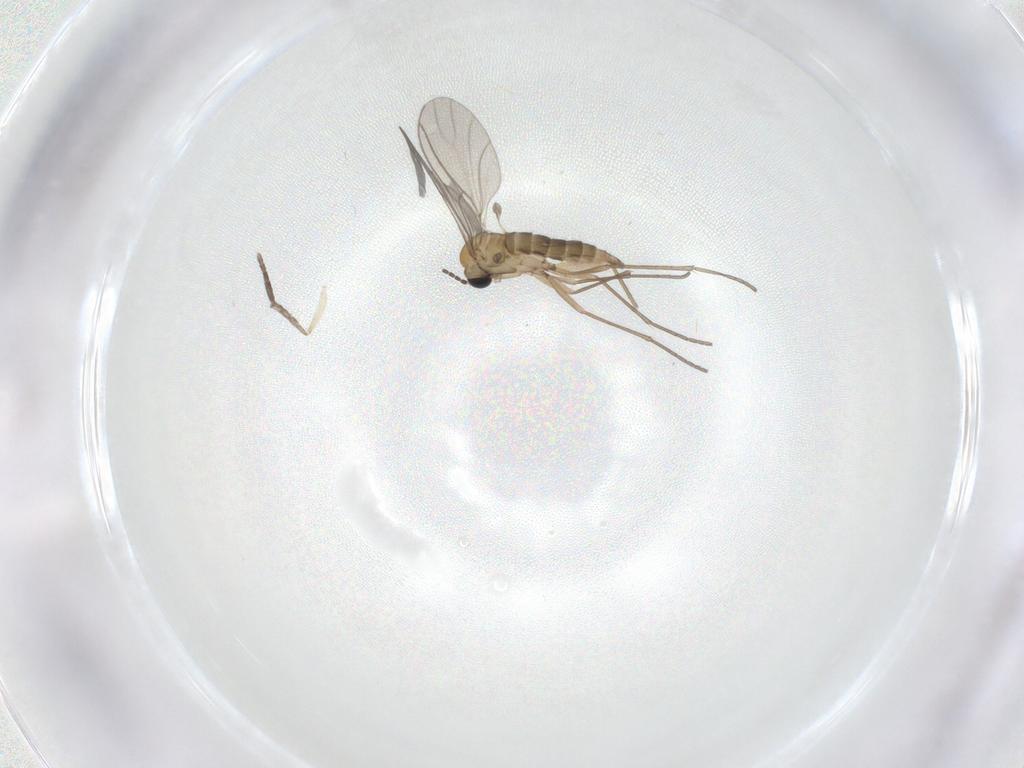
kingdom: Animalia
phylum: Arthropoda
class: Insecta
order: Diptera
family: Sciaridae
